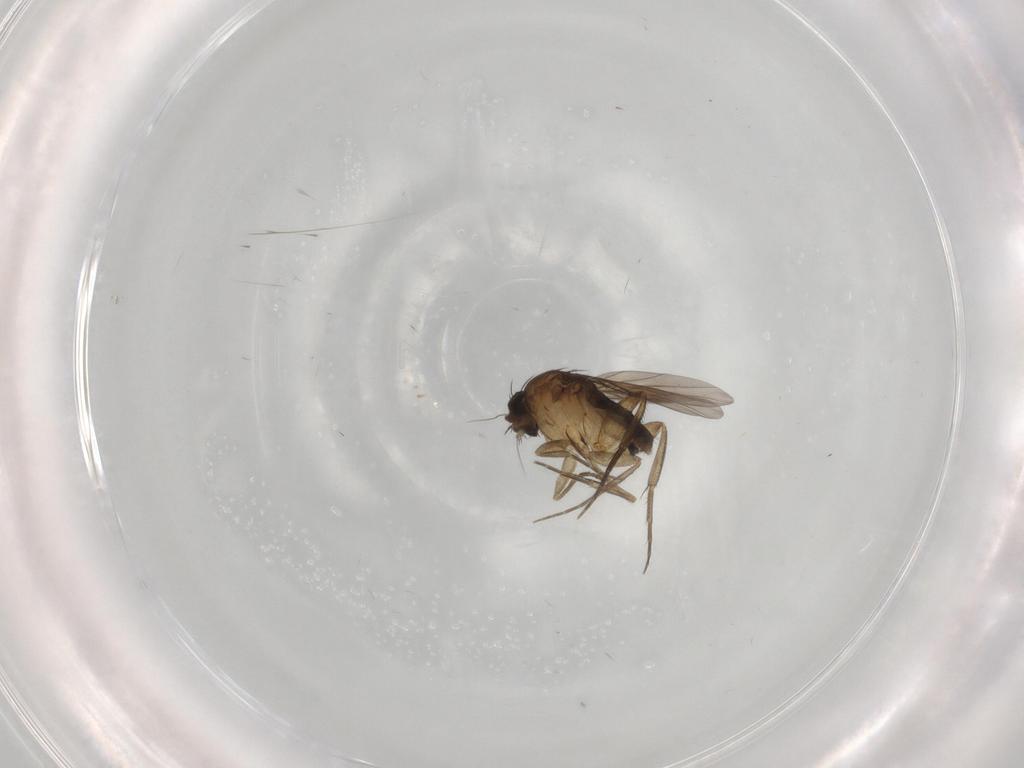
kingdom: Animalia
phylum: Arthropoda
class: Insecta
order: Diptera
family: Phoridae
